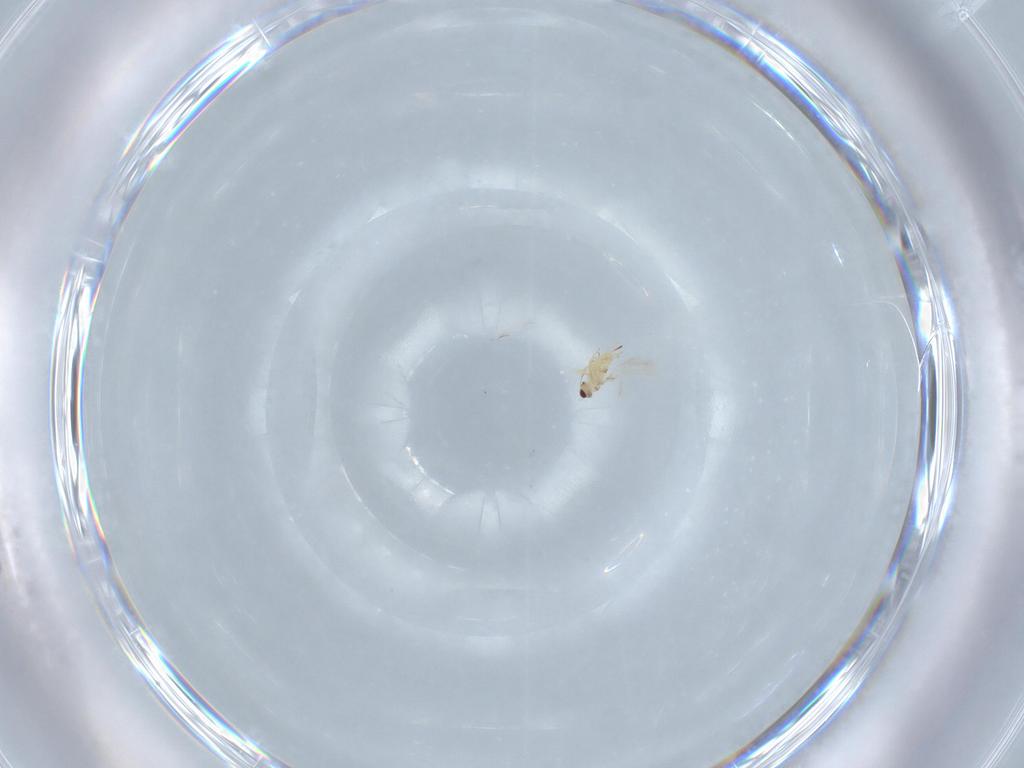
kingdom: Animalia
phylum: Arthropoda
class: Insecta
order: Hymenoptera
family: Mymaridae
